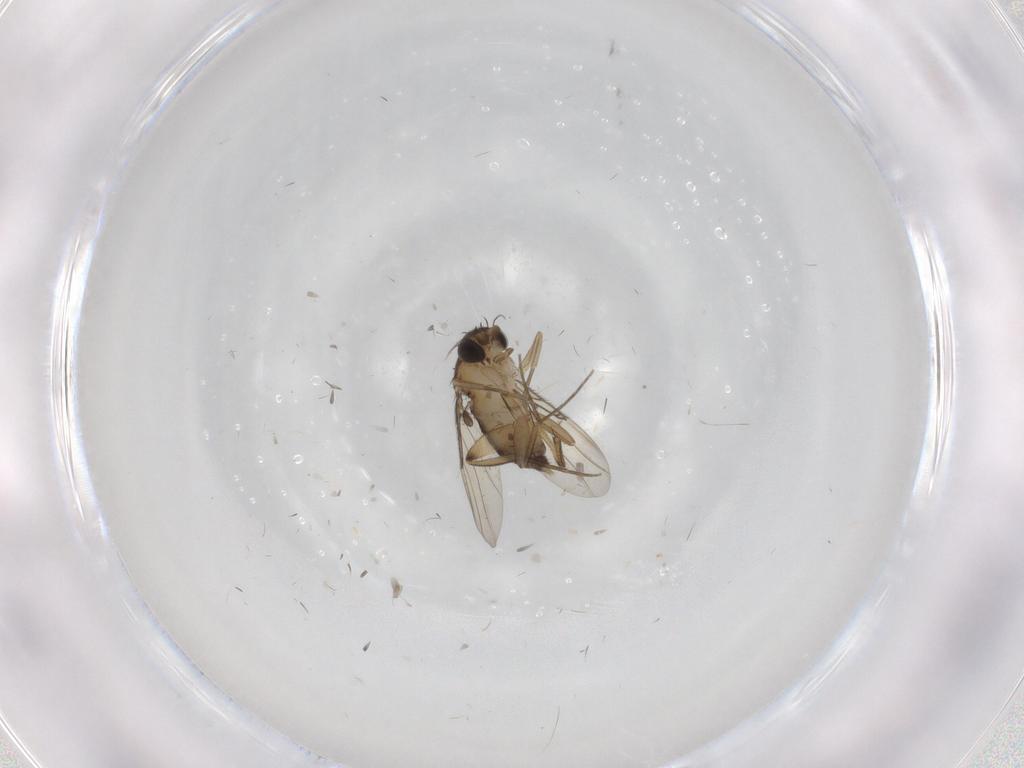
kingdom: Animalia
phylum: Arthropoda
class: Insecta
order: Diptera
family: Phoridae
